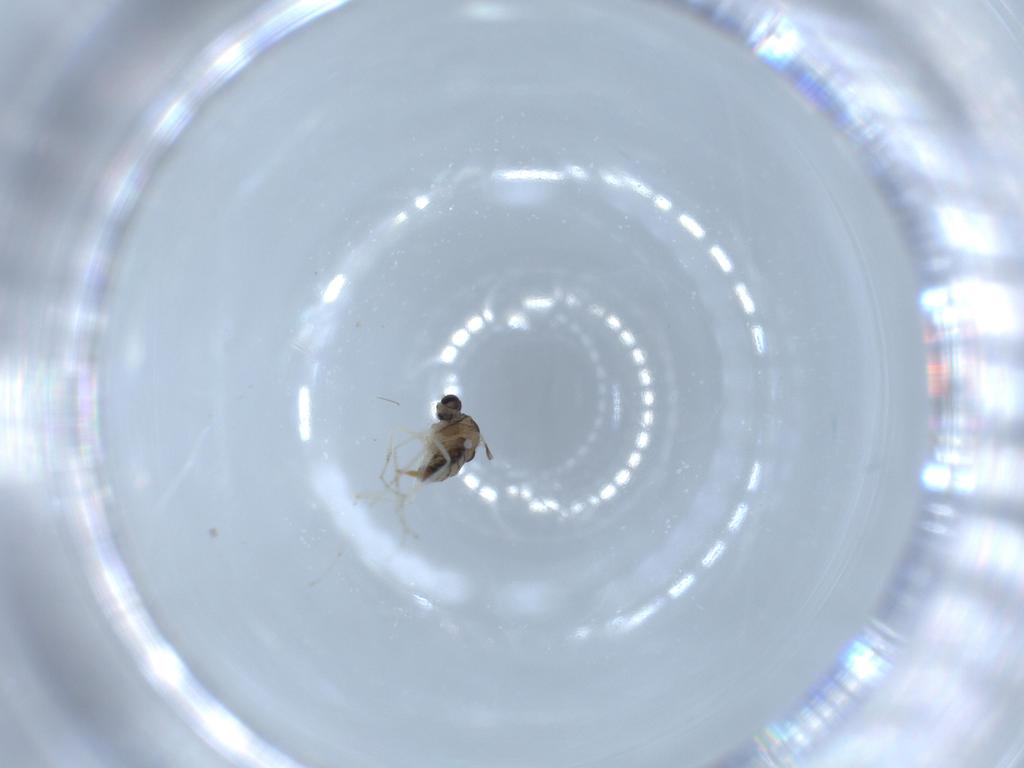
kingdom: Animalia
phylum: Arthropoda
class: Insecta
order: Diptera
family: Cecidomyiidae
